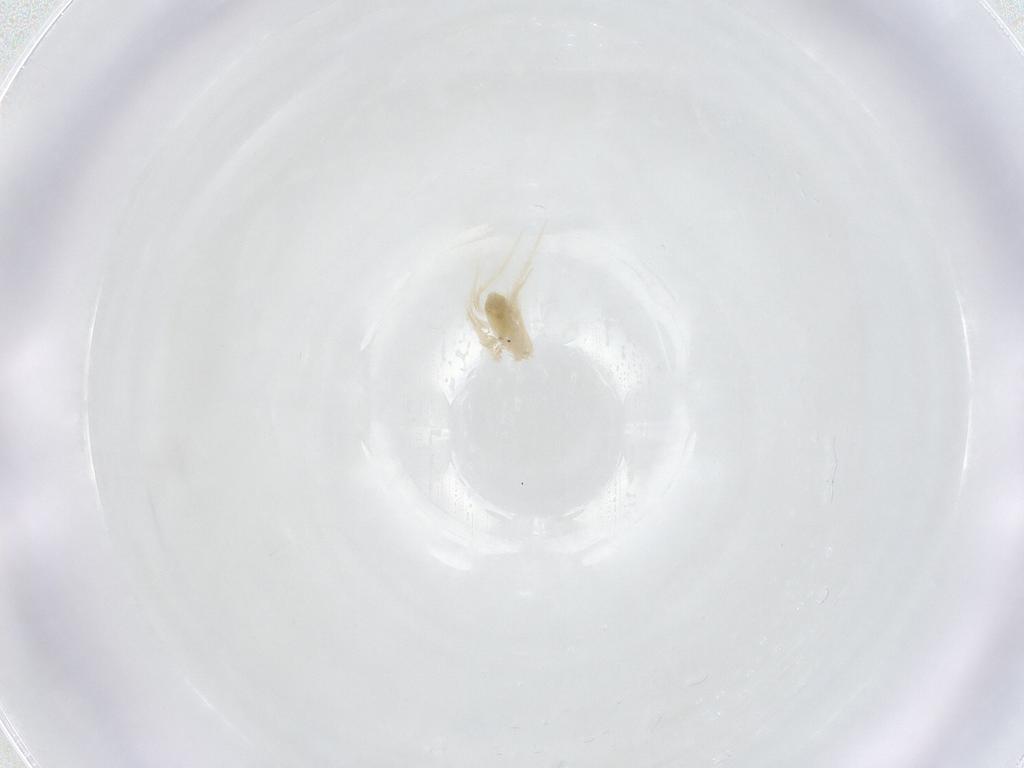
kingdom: Animalia
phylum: Arthropoda
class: Arachnida
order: Trombidiformes
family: Anystidae
